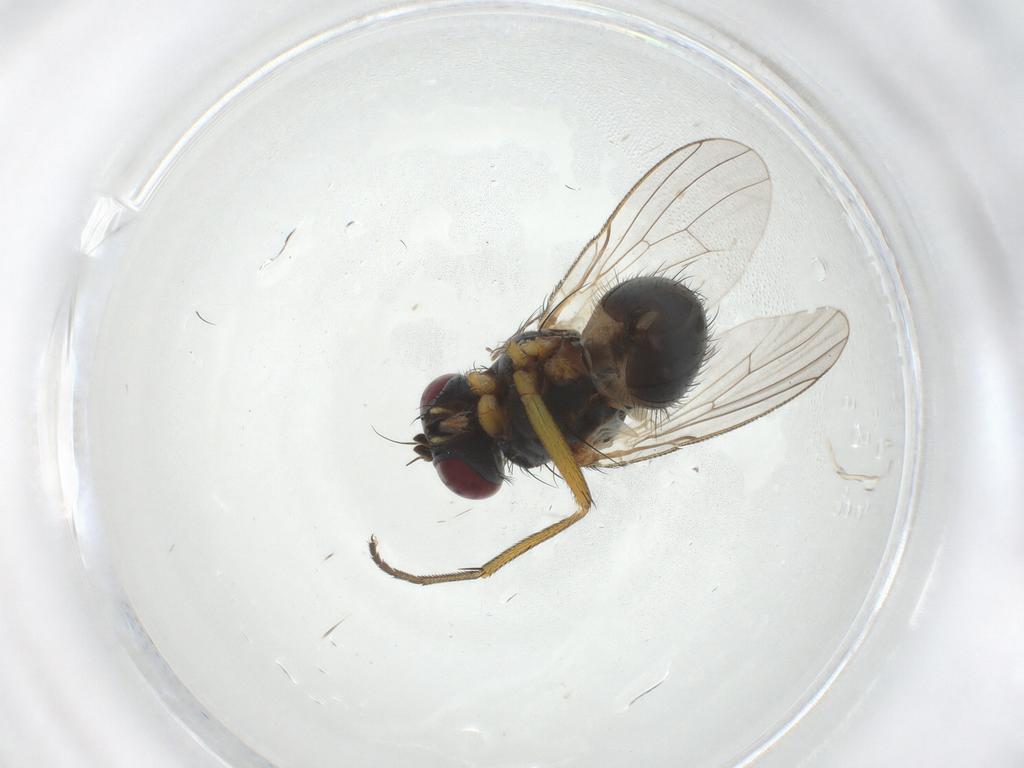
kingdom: Animalia
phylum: Arthropoda
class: Insecta
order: Diptera
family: Muscidae
